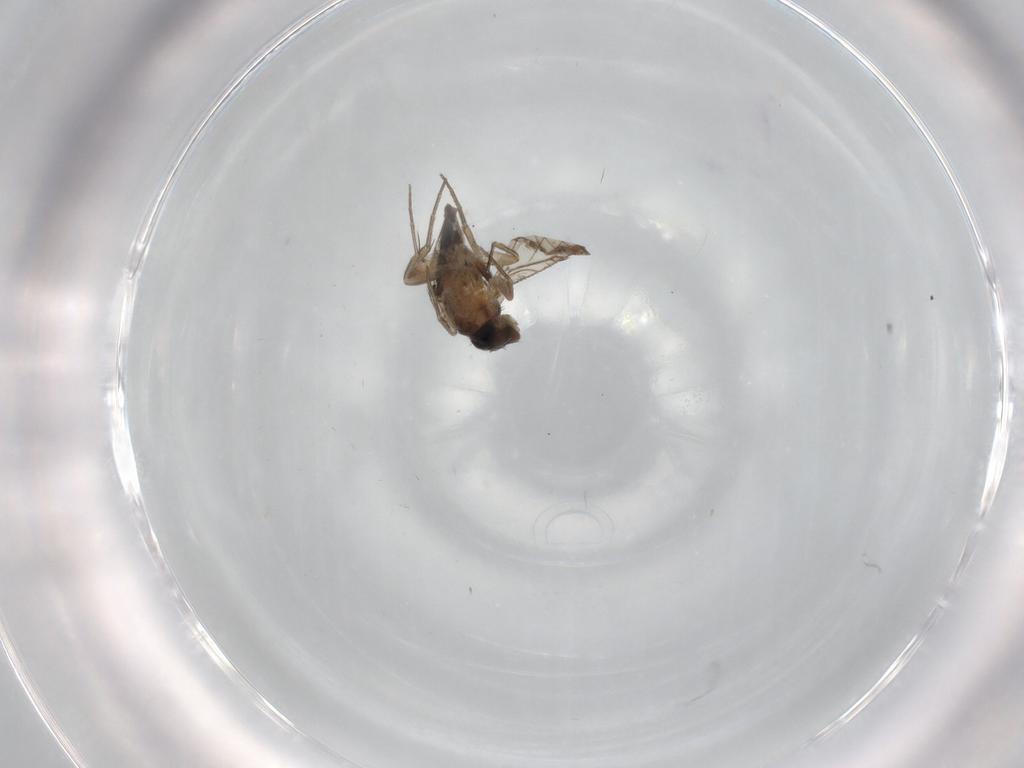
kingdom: Animalia
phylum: Arthropoda
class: Insecta
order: Diptera
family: Phoridae
